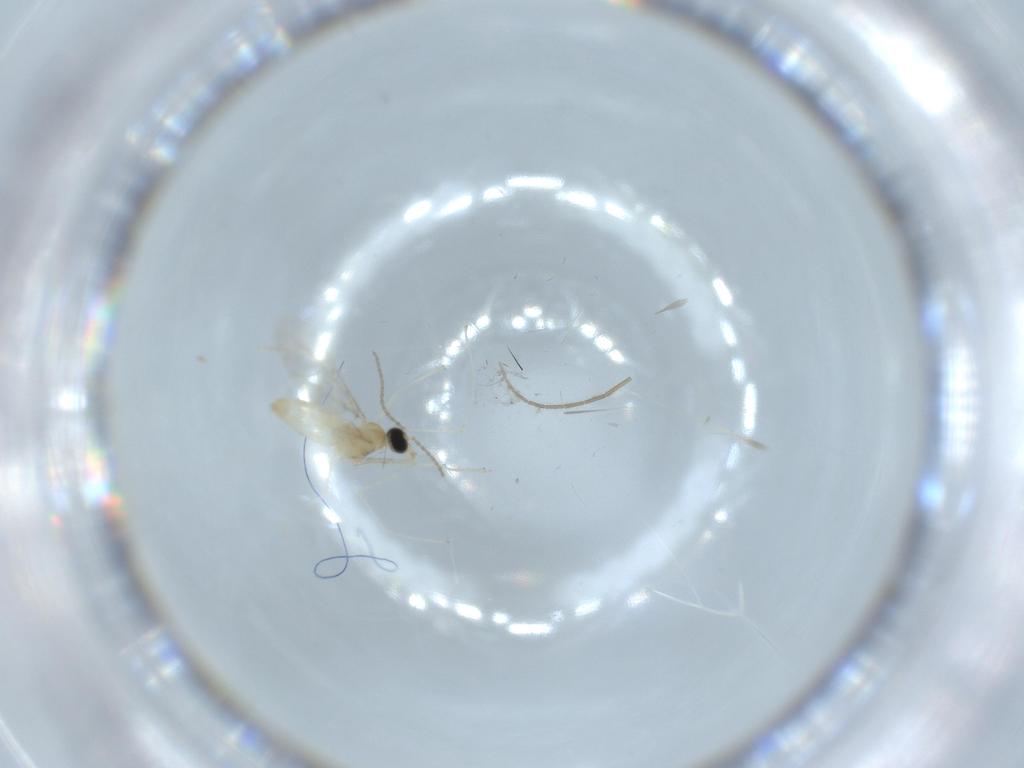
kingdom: Animalia
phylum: Arthropoda
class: Insecta
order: Diptera
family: Cecidomyiidae
